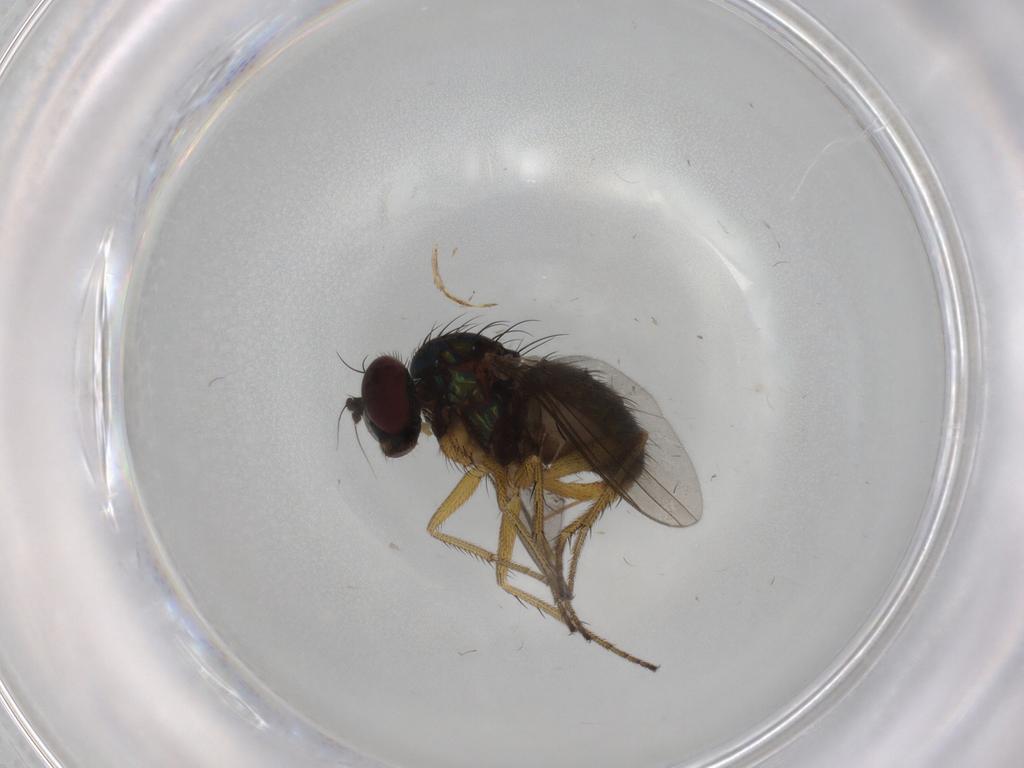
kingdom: Animalia
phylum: Arthropoda
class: Insecta
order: Diptera
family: Dolichopodidae
